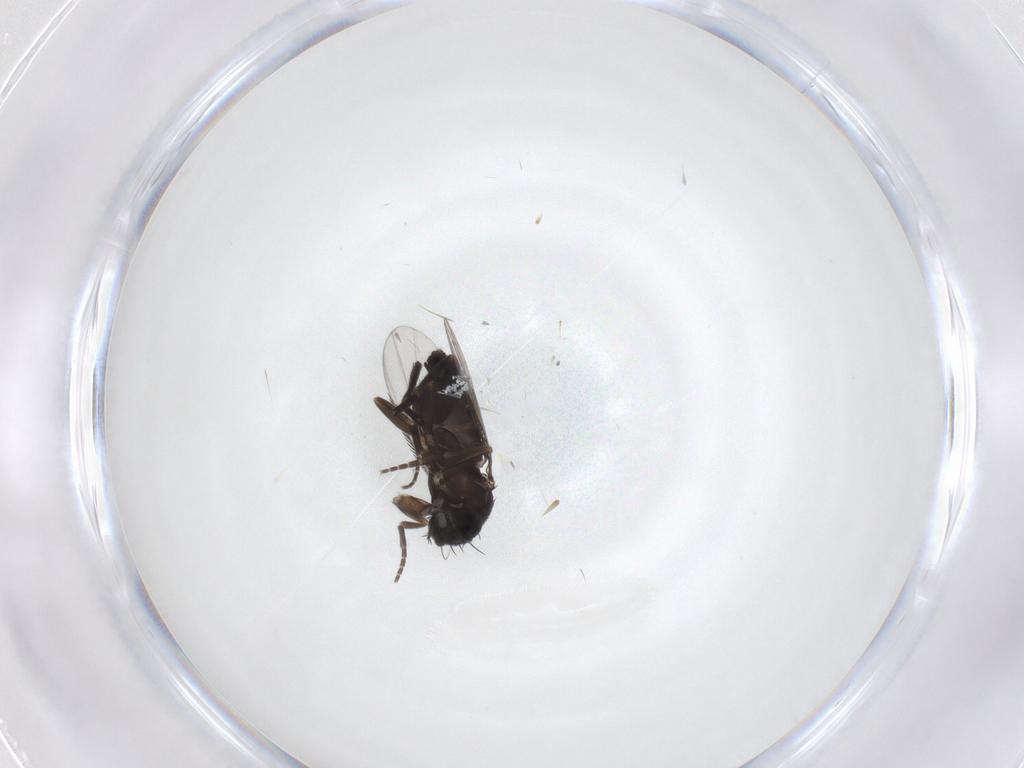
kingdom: Animalia
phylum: Arthropoda
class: Insecta
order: Diptera
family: Phoridae
